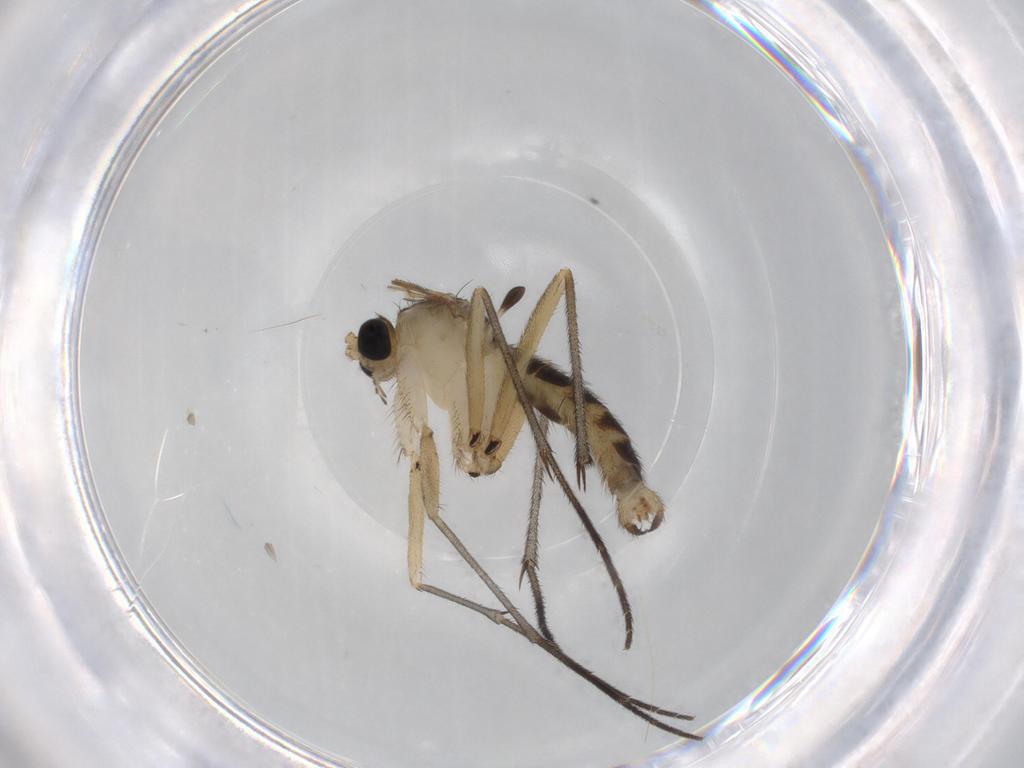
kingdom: Animalia
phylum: Arthropoda
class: Insecta
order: Diptera
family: Sciaridae
